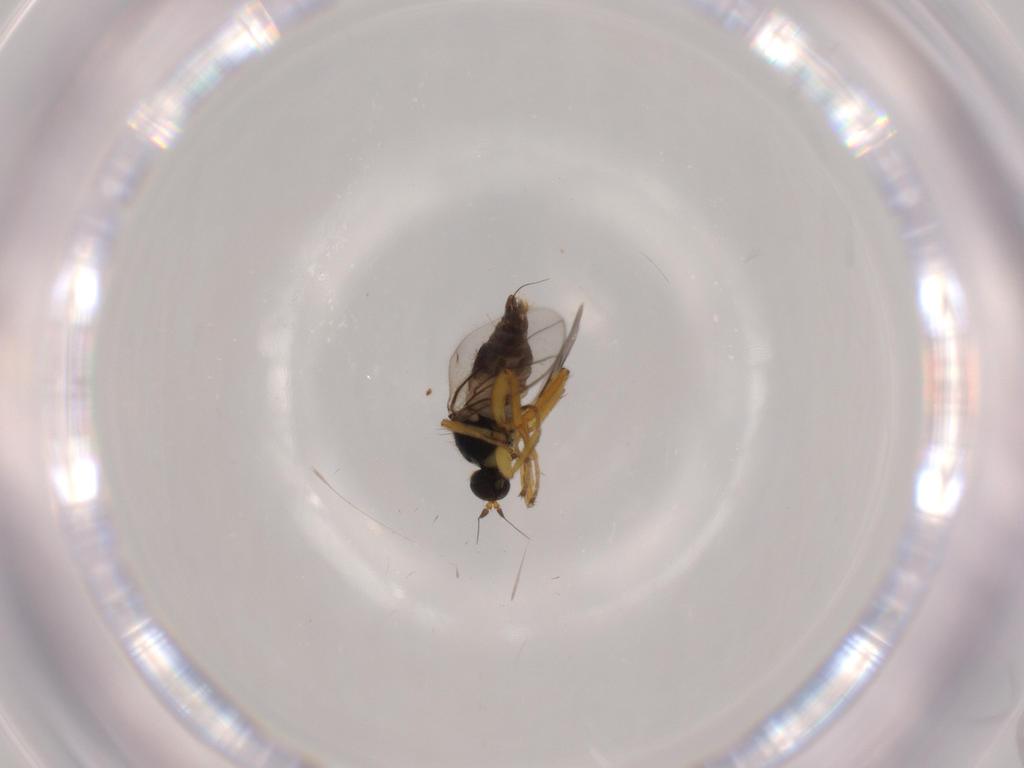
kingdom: Animalia
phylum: Arthropoda
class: Insecta
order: Diptera
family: Hybotidae
